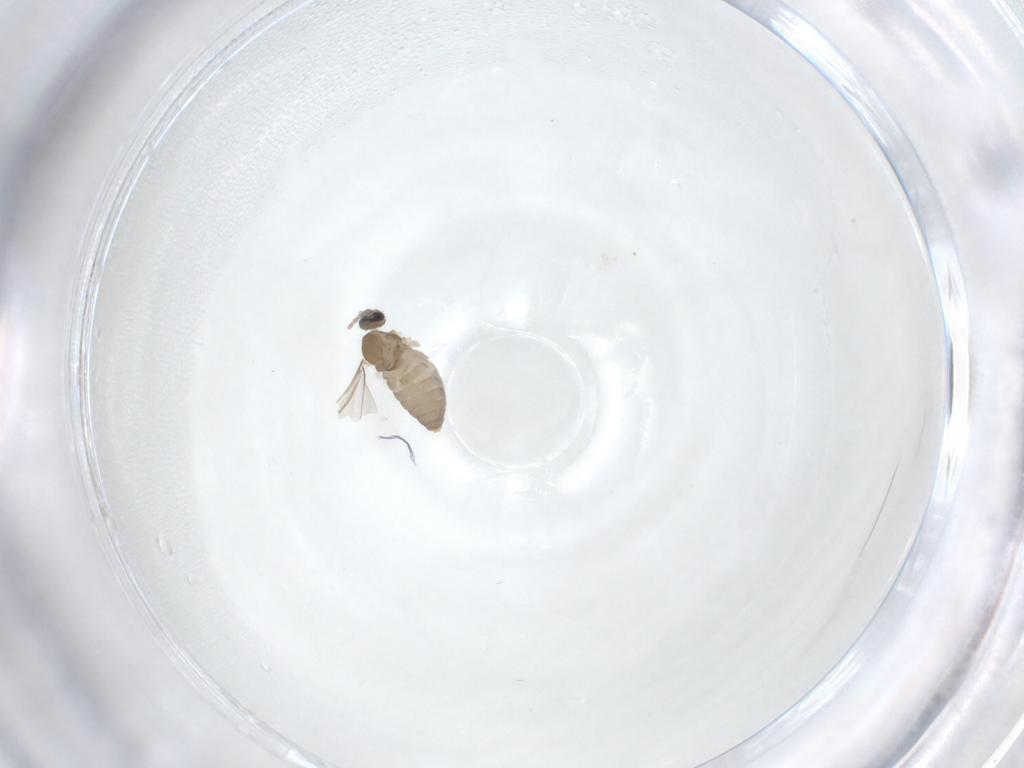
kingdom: Animalia
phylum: Arthropoda
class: Insecta
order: Diptera
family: Cecidomyiidae
